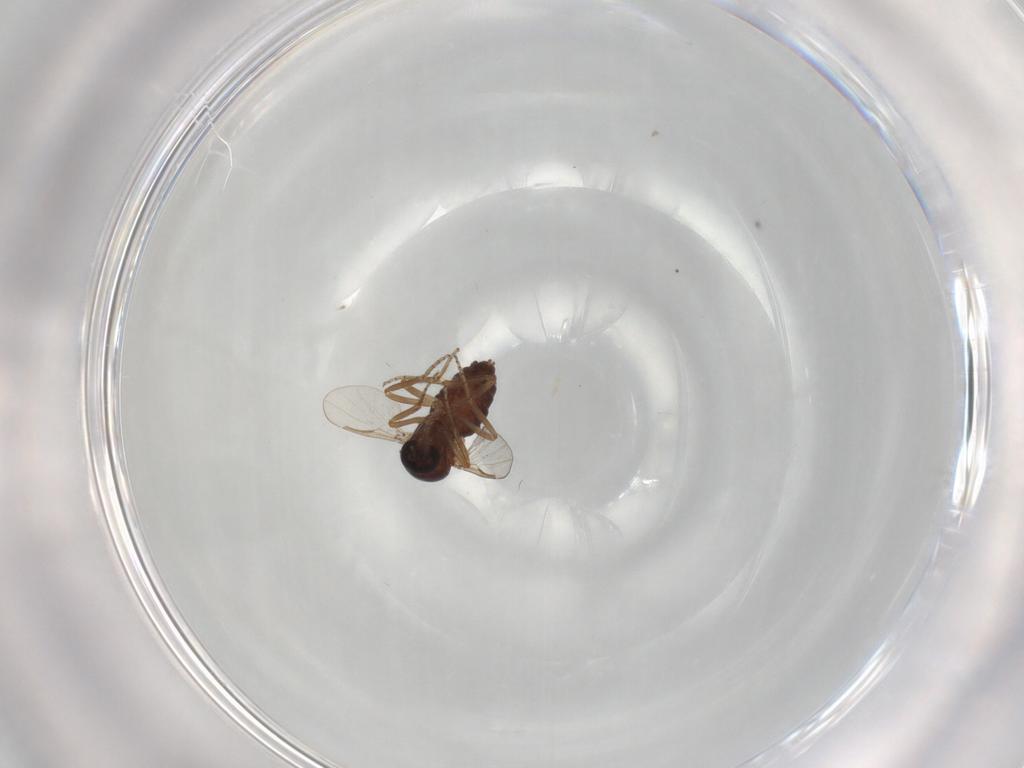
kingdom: Animalia
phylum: Arthropoda
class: Insecta
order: Diptera
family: Ceratopogonidae
